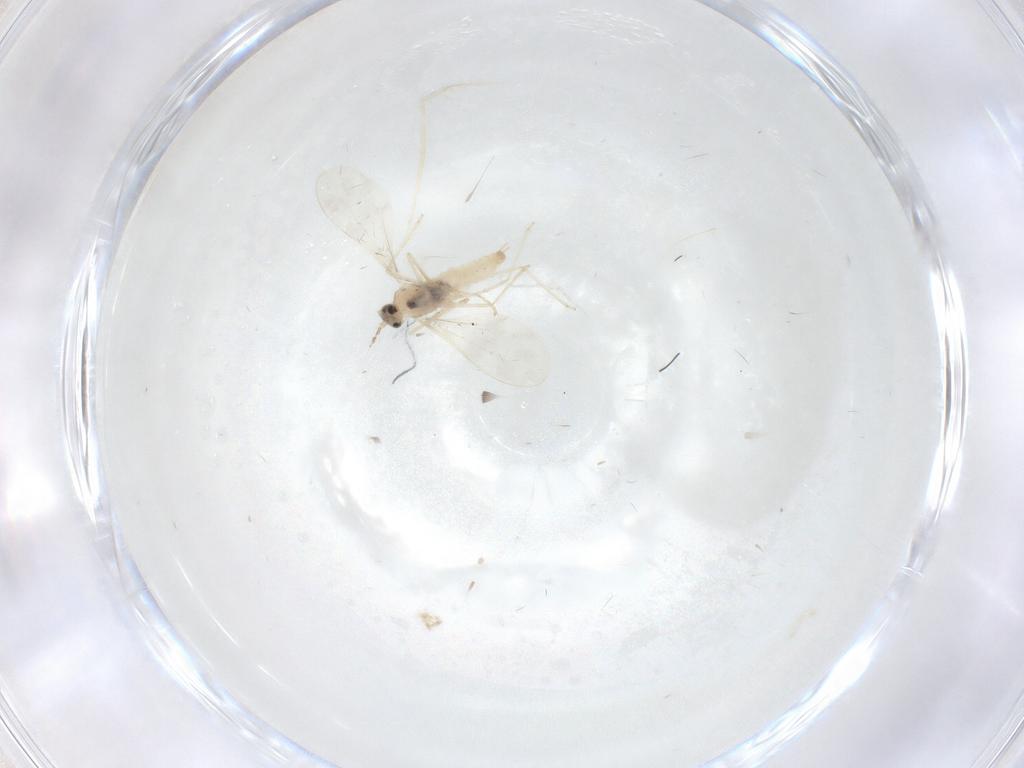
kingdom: Animalia
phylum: Arthropoda
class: Insecta
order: Diptera
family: Cecidomyiidae
